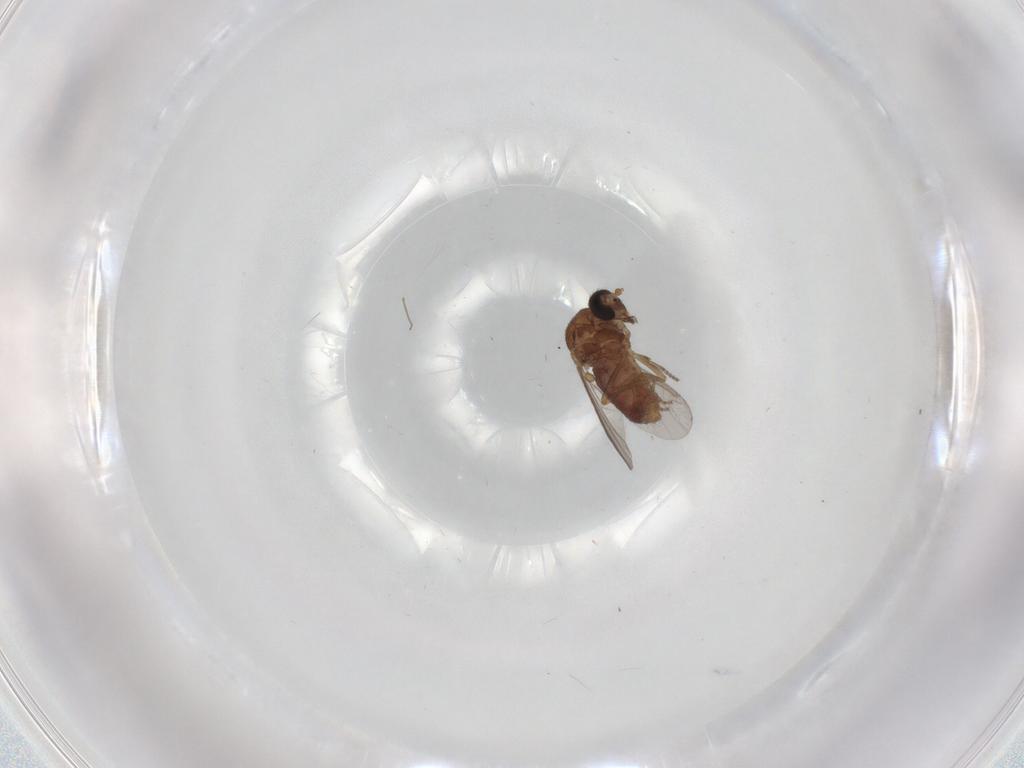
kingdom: Animalia
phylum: Arthropoda
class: Insecta
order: Diptera
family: Ceratopogonidae
